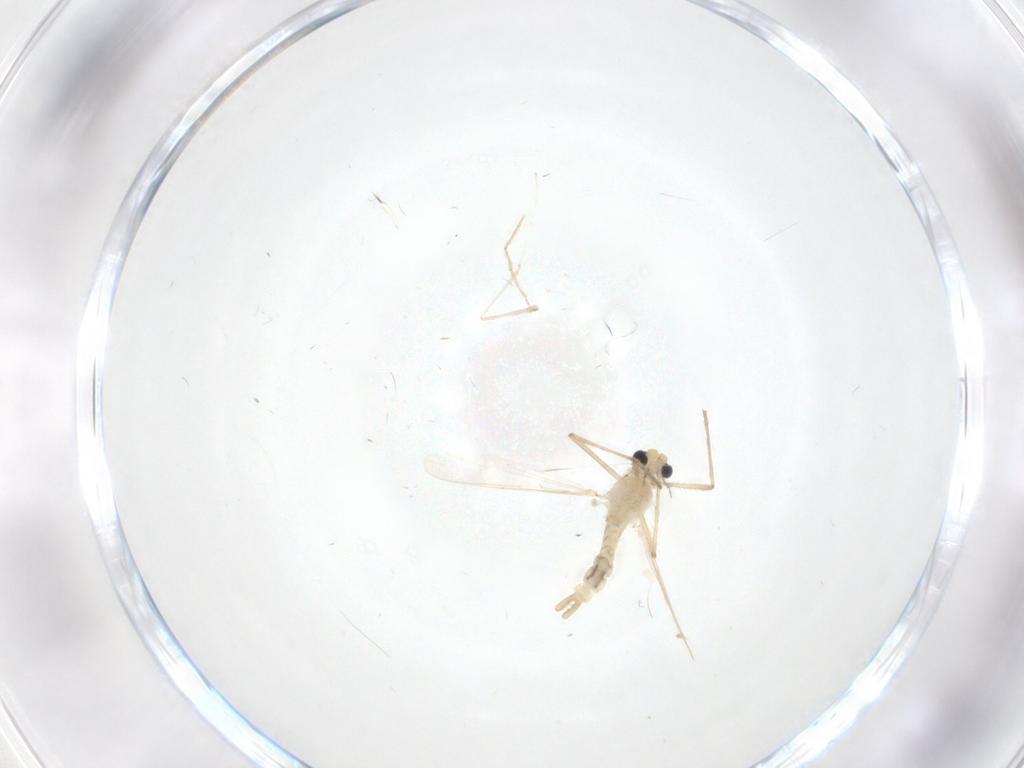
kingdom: Animalia
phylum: Arthropoda
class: Insecta
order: Diptera
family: Chironomidae
